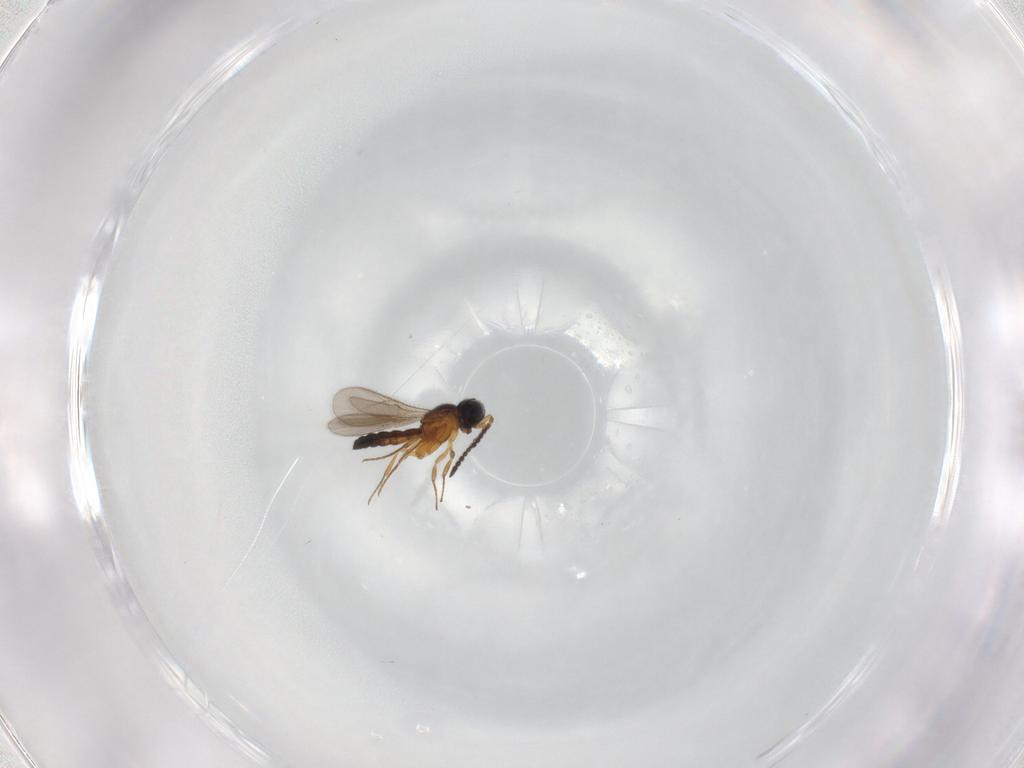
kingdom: Animalia
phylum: Arthropoda
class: Insecta
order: Hymenoptera
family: Scelionidae
